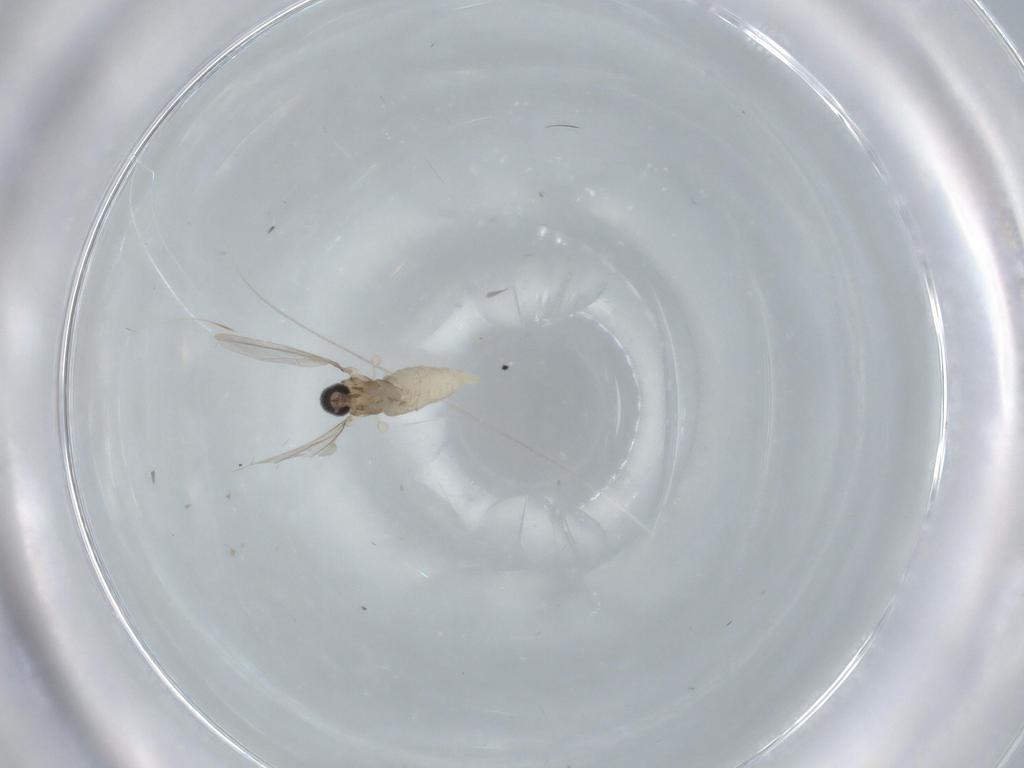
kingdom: Animalia
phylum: Arthropoda
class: Insecta
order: Diptera
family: Cecidomyiidae
